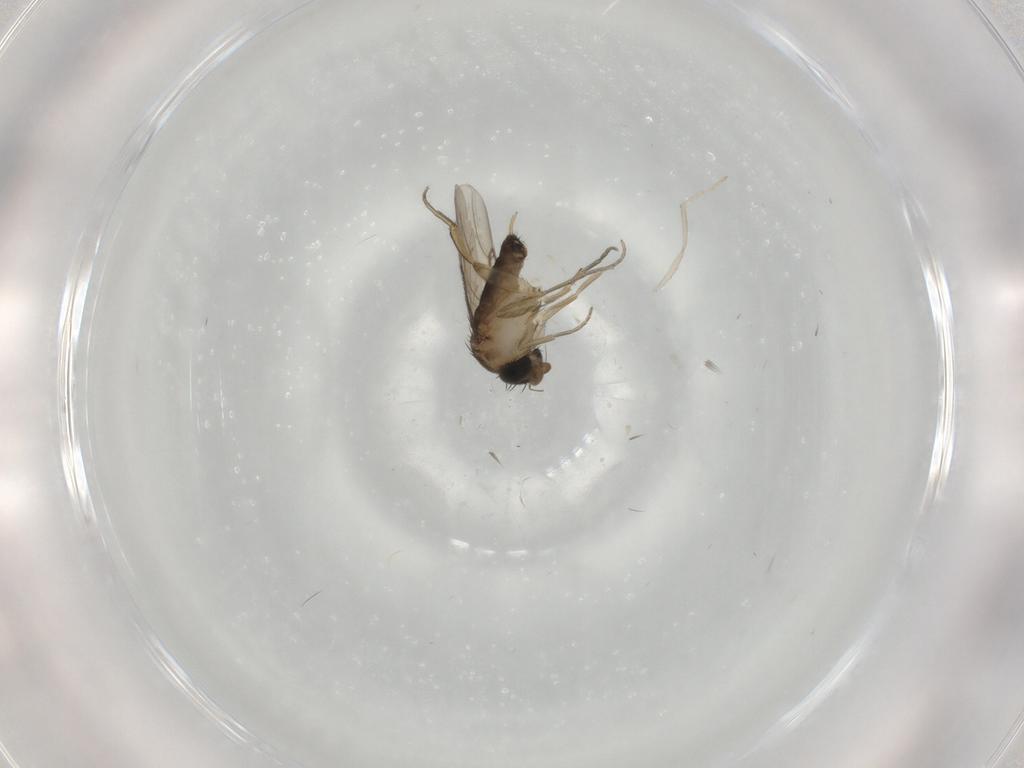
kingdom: Animalia
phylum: Arthropoda
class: Insecta
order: Diptera
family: Phoridae
